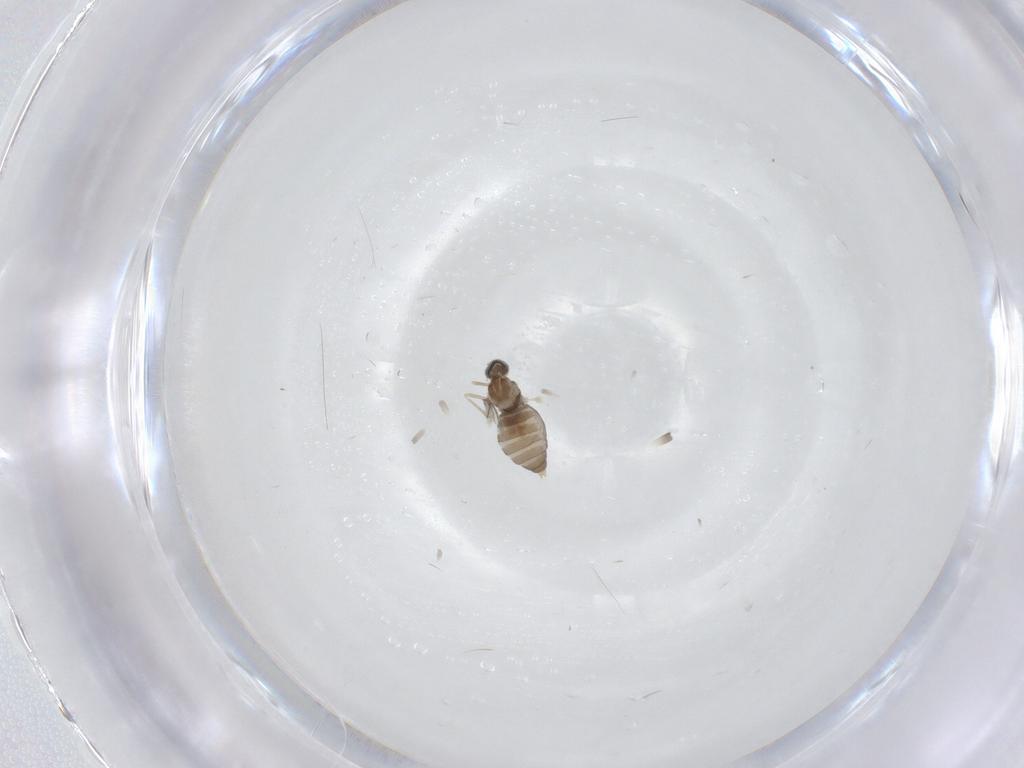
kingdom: Animalia
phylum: Arthropoda
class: Insecta
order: Diptera
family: Cecidomyiidae
